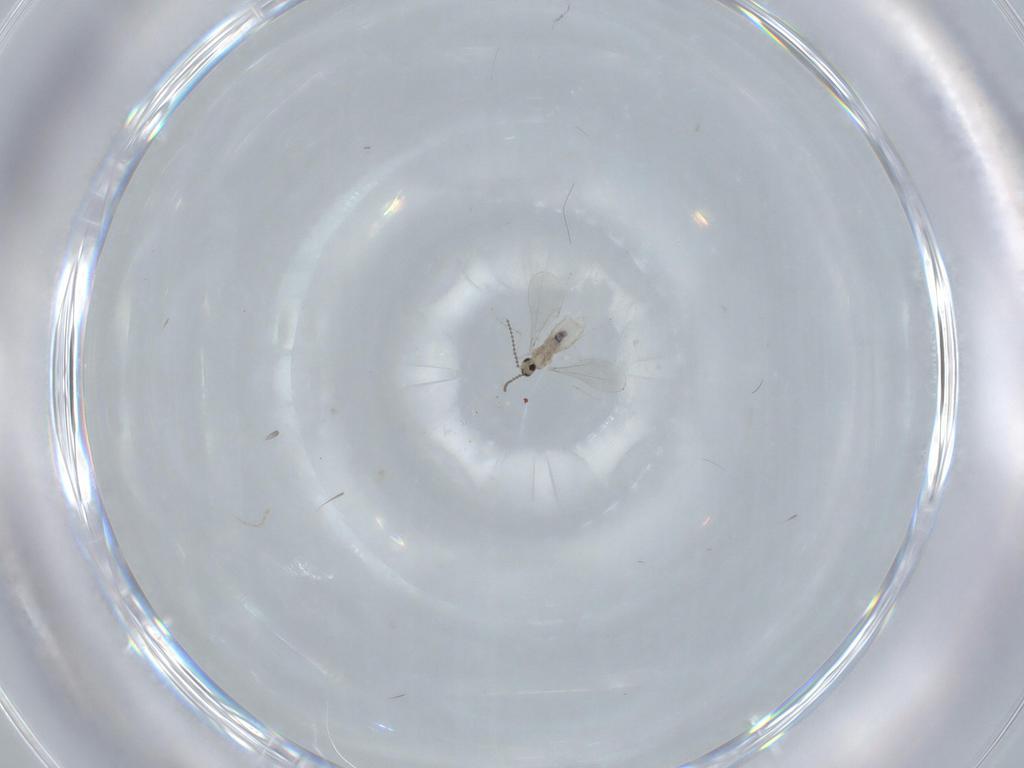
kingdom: Animalia
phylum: Arthropoda
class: Insecta
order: Diptera
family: Cecidomyiidae
